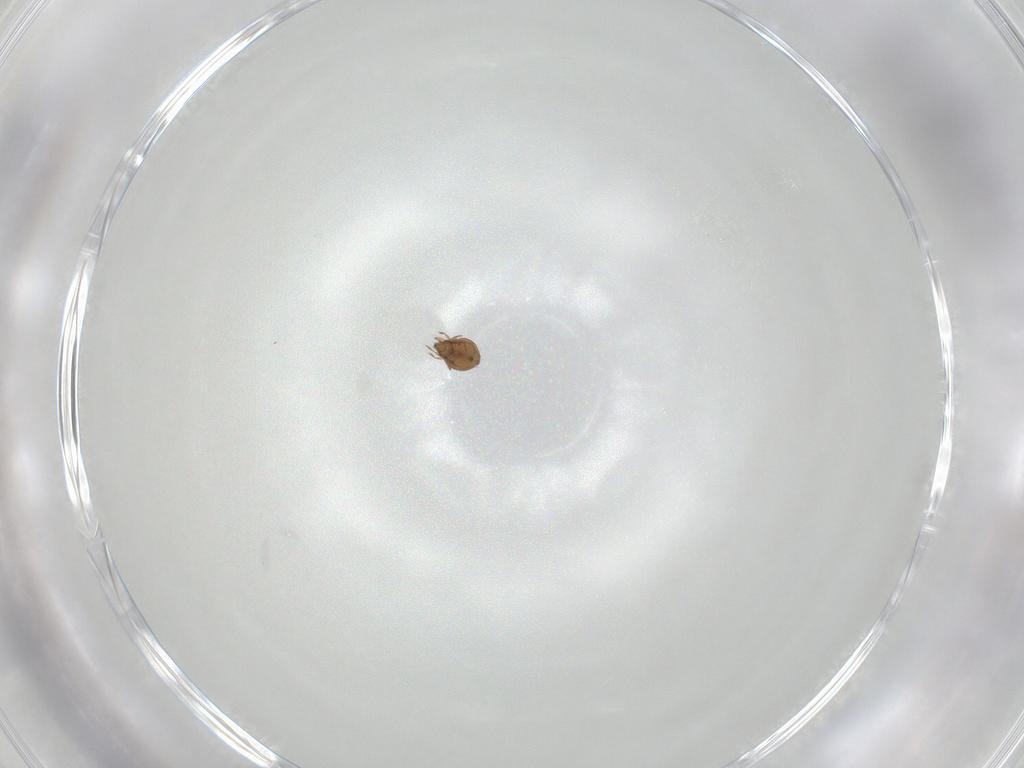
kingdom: Animalia
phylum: Arthropoda
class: Arachnida
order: Sarcoptiformes
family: Oribatulidae
